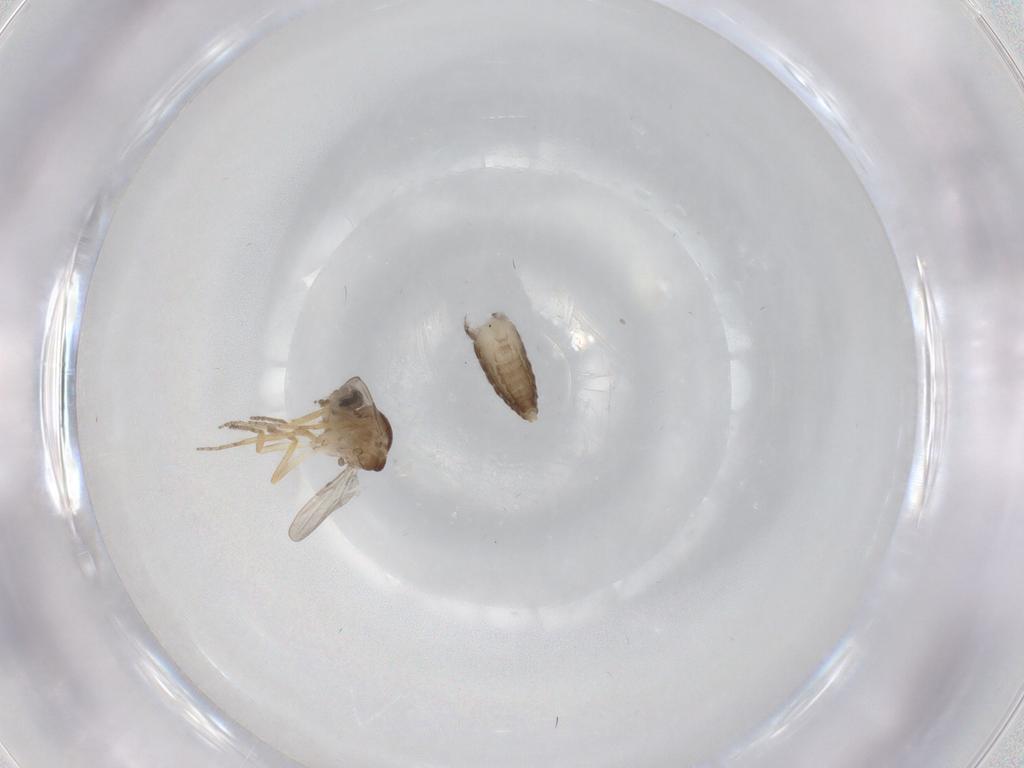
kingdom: Animalia
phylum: Arthropoda
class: Insecta
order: Diptera
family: Ceratopogonidae
